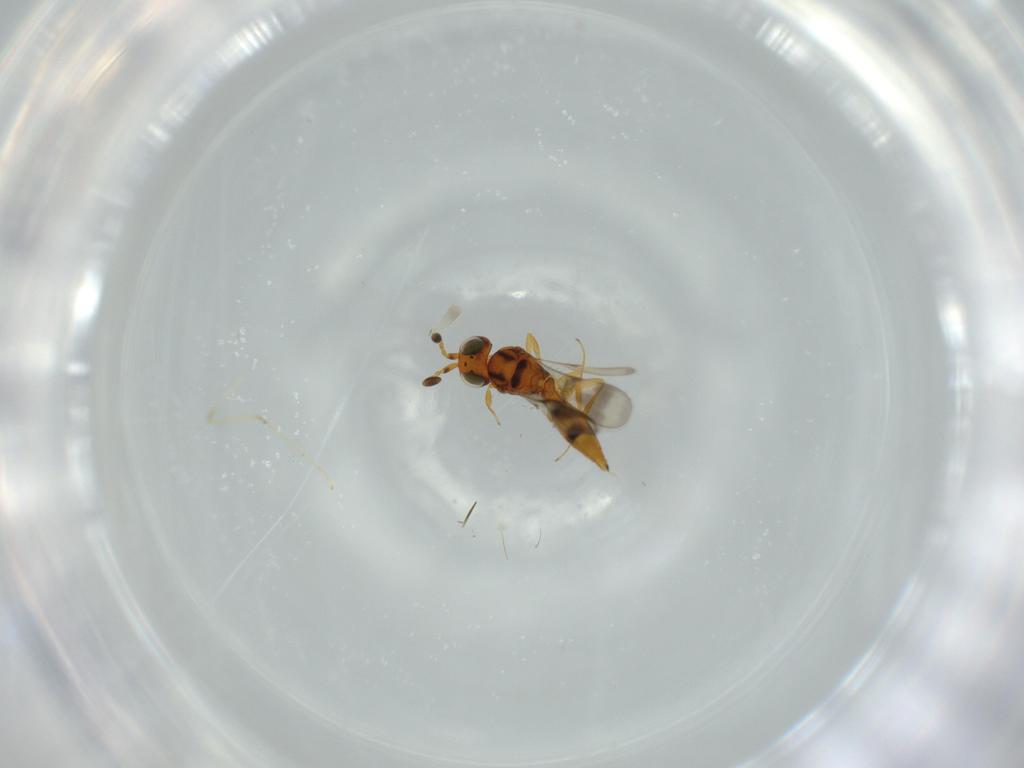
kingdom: Animalia
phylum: Arthropoda
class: Insecta
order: Hymenoptera
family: Scelionidae
